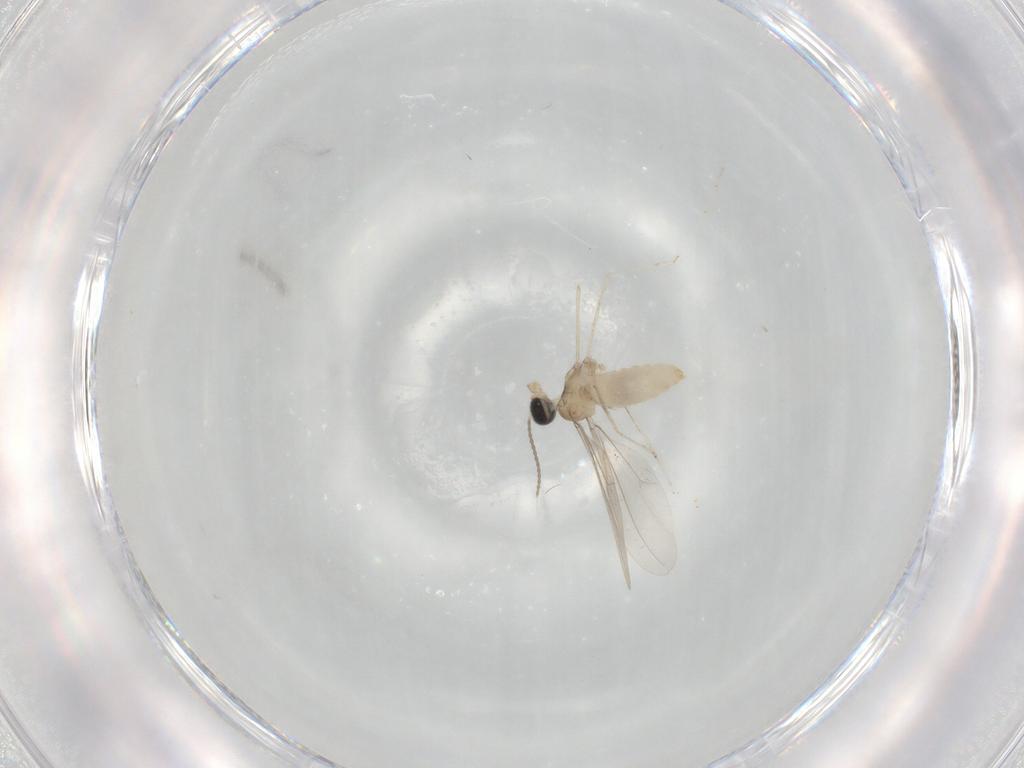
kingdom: Animalia
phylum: Arthropoda
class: Insecta
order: Diptera
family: Cecidomyiidae
